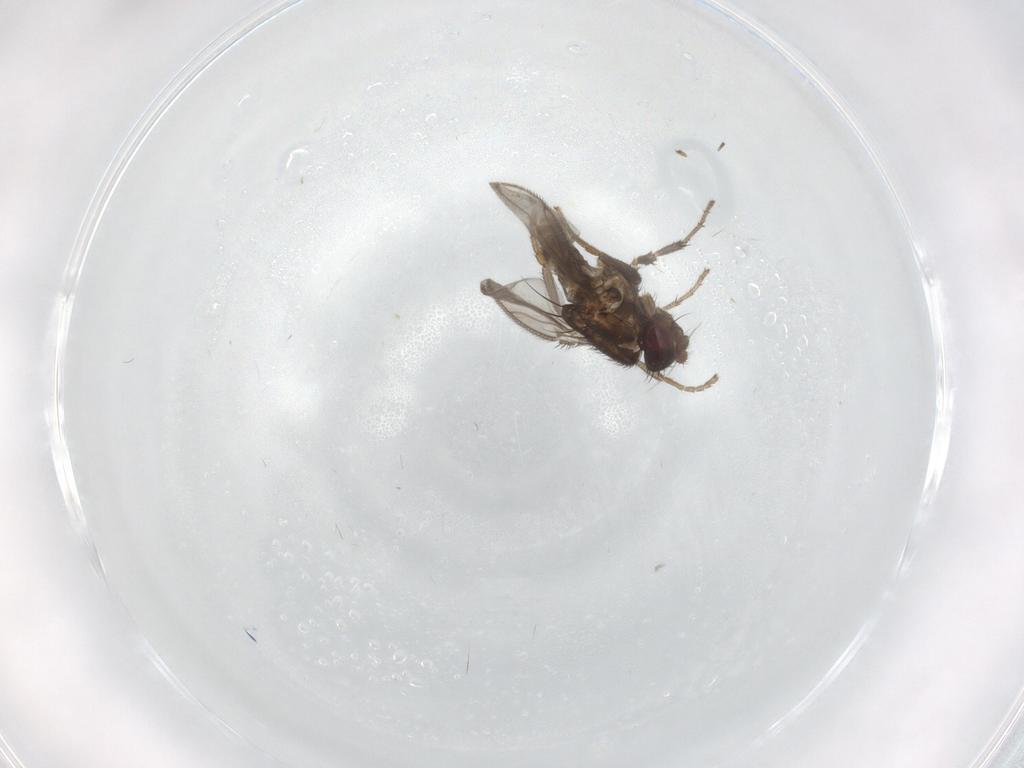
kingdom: Animalia
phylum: Arthropoda
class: Insecta
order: Diptera
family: Sphaeroceridae
